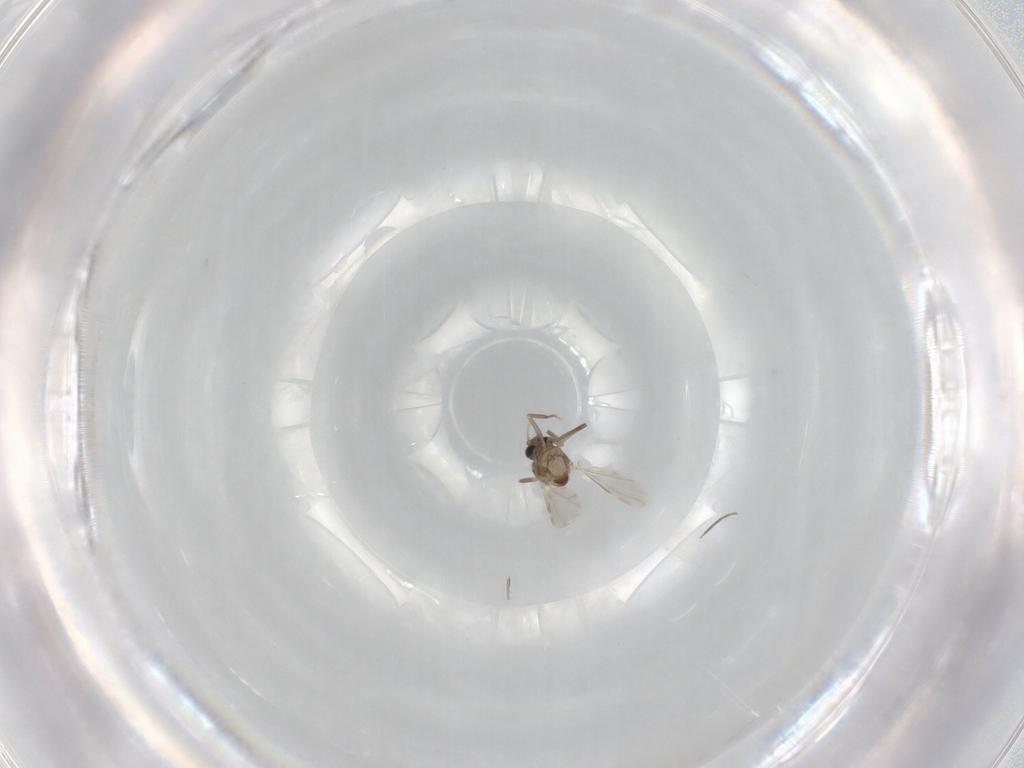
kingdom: Animalia
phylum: Arthropoda
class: Insecta
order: Diptera
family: Ceratopogonidae
